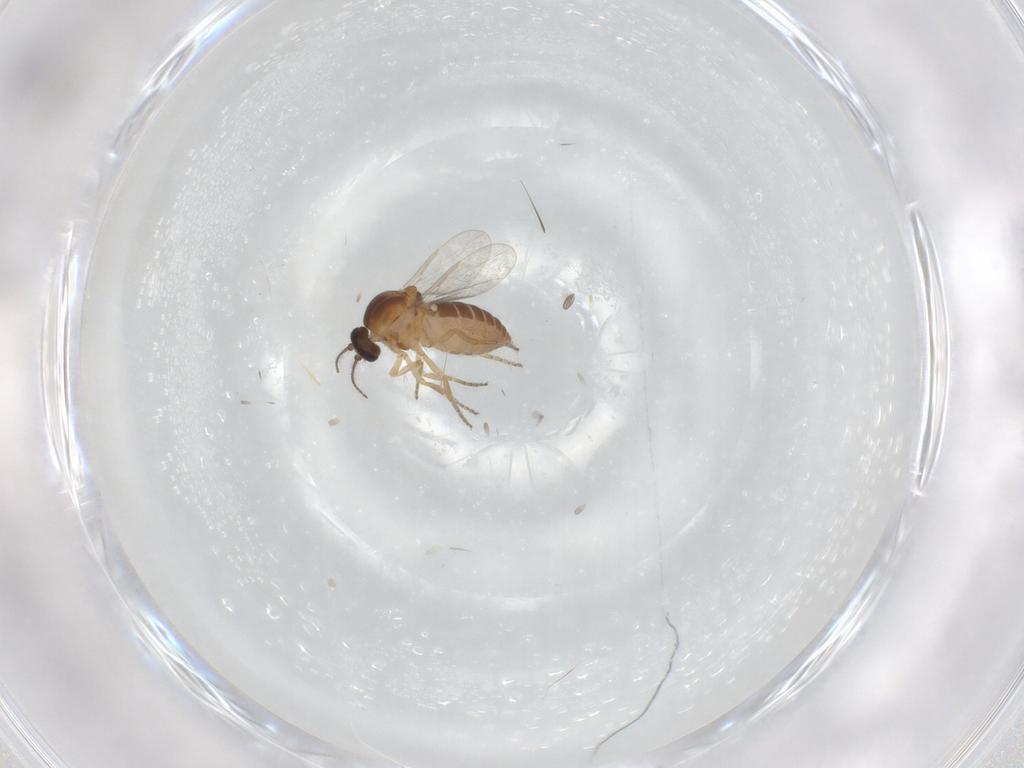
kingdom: Animalia
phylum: Arthropoda
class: Insecta
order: Diptera
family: Ceratopogonidae
